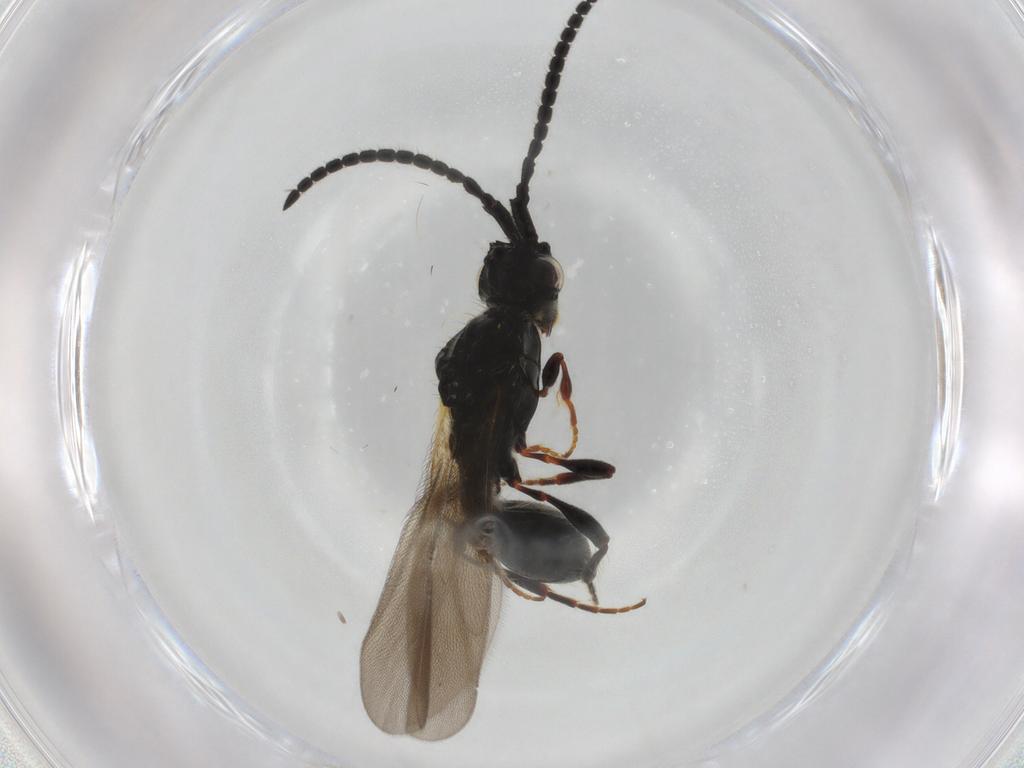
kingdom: Animalia
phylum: Arthropoda
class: Insecta
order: Hymenoptera
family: Diapriidae
